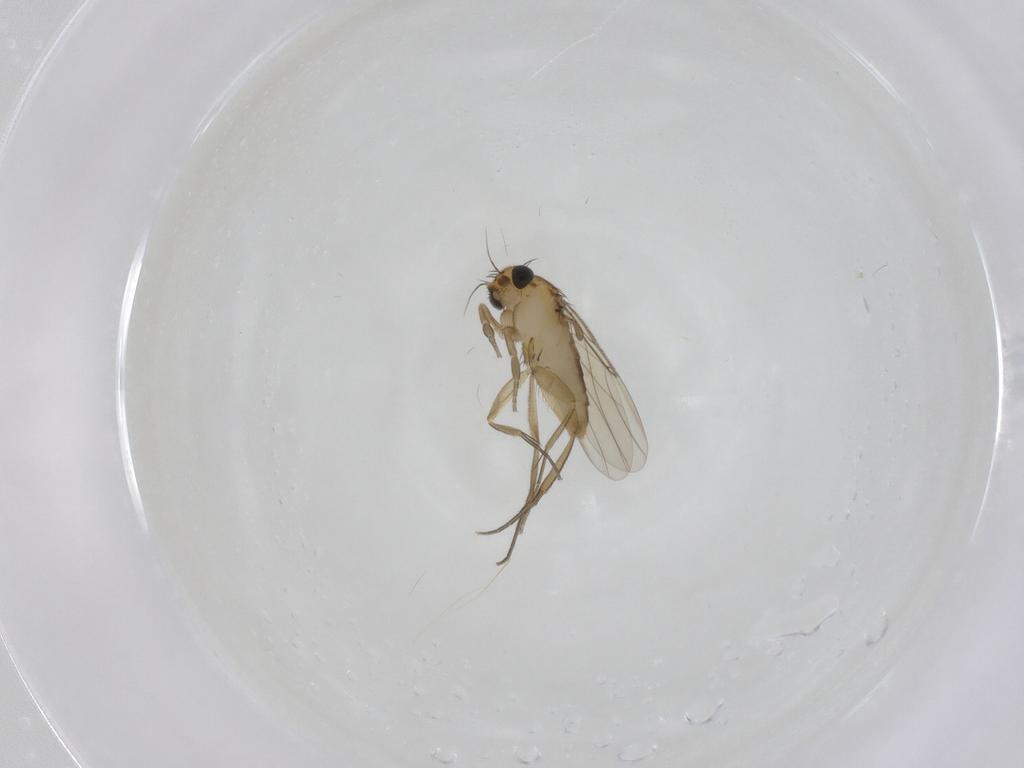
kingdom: Animalia
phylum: Arthropoda
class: Insecta
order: Diptera
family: Phoridae
